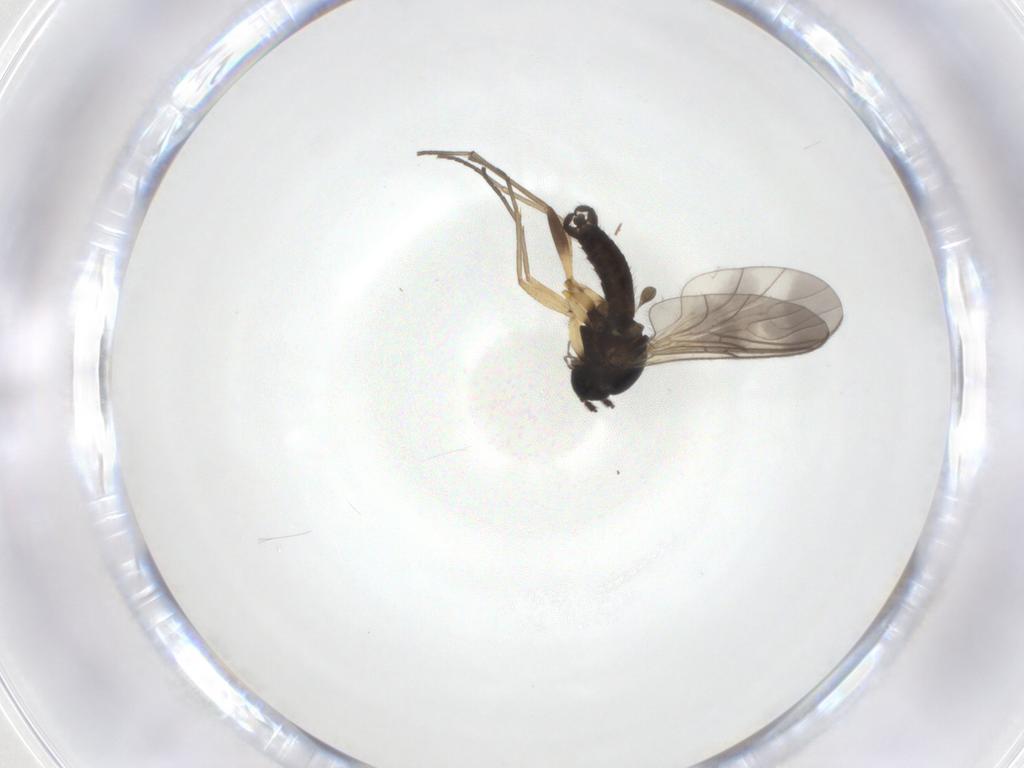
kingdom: Animalia
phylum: Arthropoda
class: Insecta
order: Diptera
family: Sciaridae
